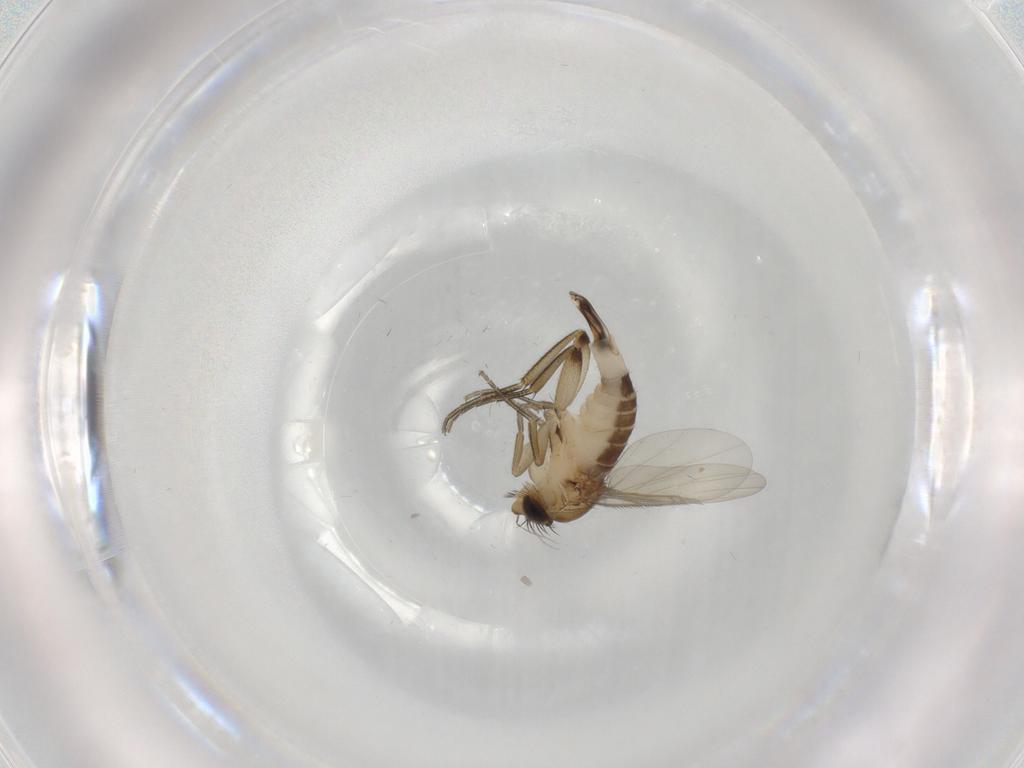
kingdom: Animalia
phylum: Arthropoda
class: Insecta
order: Diptera
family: Phoridae
